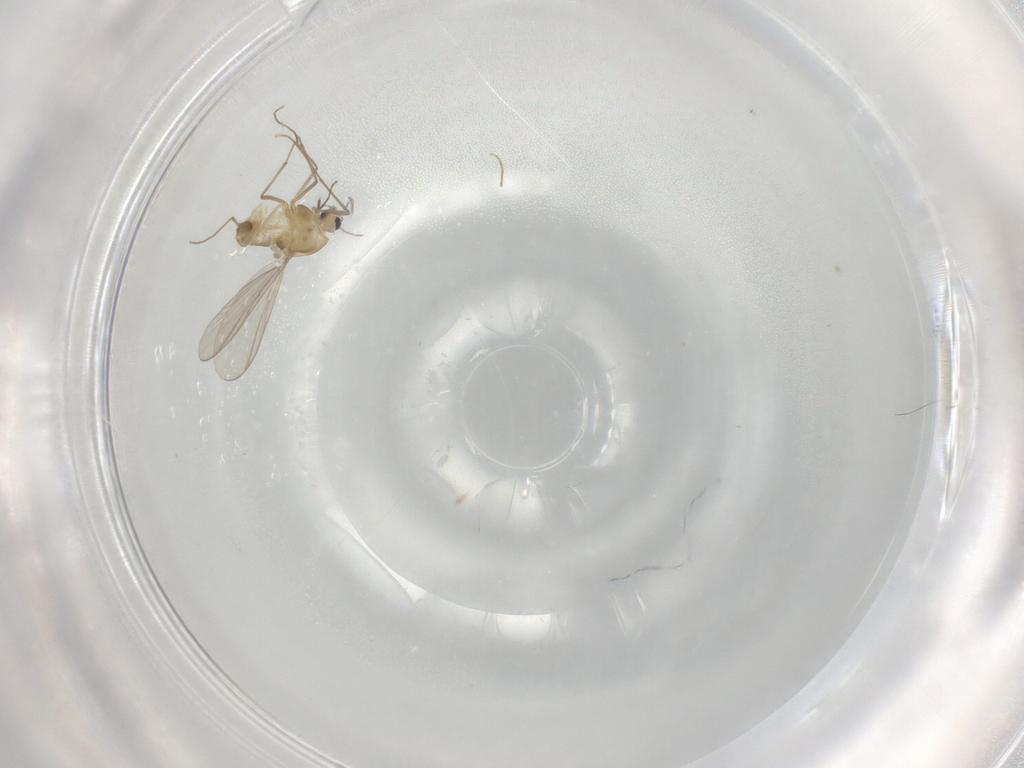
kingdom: Animalia
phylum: Arthropoda
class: Insecta
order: Diptera
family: Chironomidae
